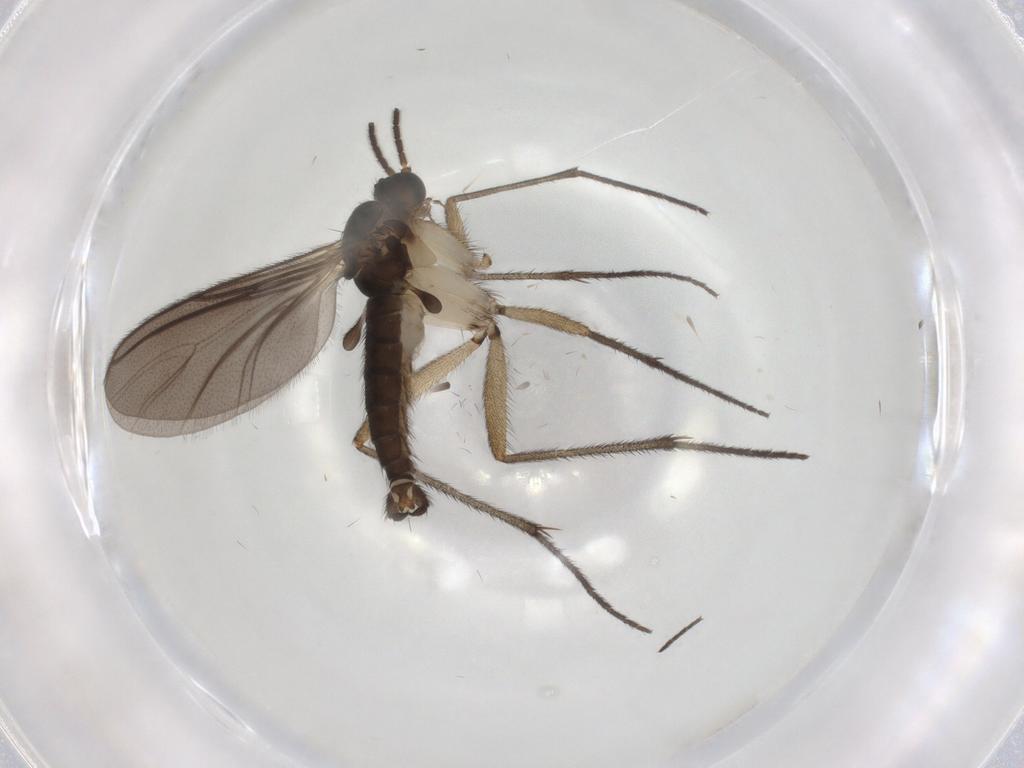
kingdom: Animalia
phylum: Arthropoda
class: Insecta
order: Diptera
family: Sciaridae
